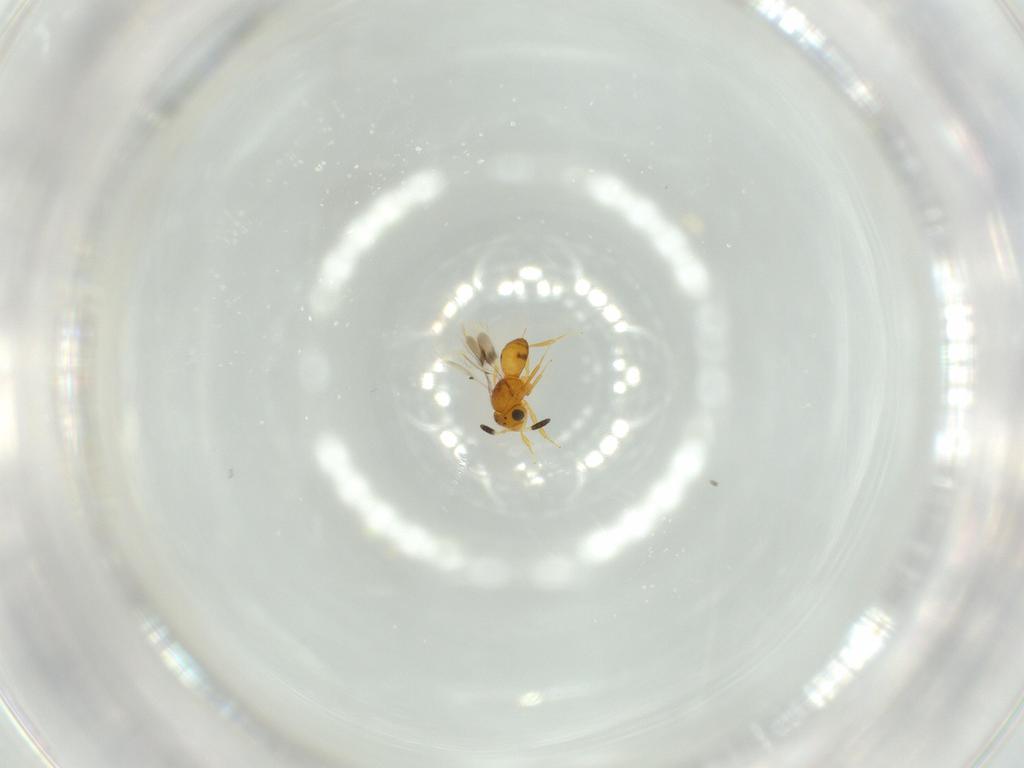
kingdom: Animalia
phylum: Arthropoda
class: Insecta
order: Hymenoptera
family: Scelionidae
